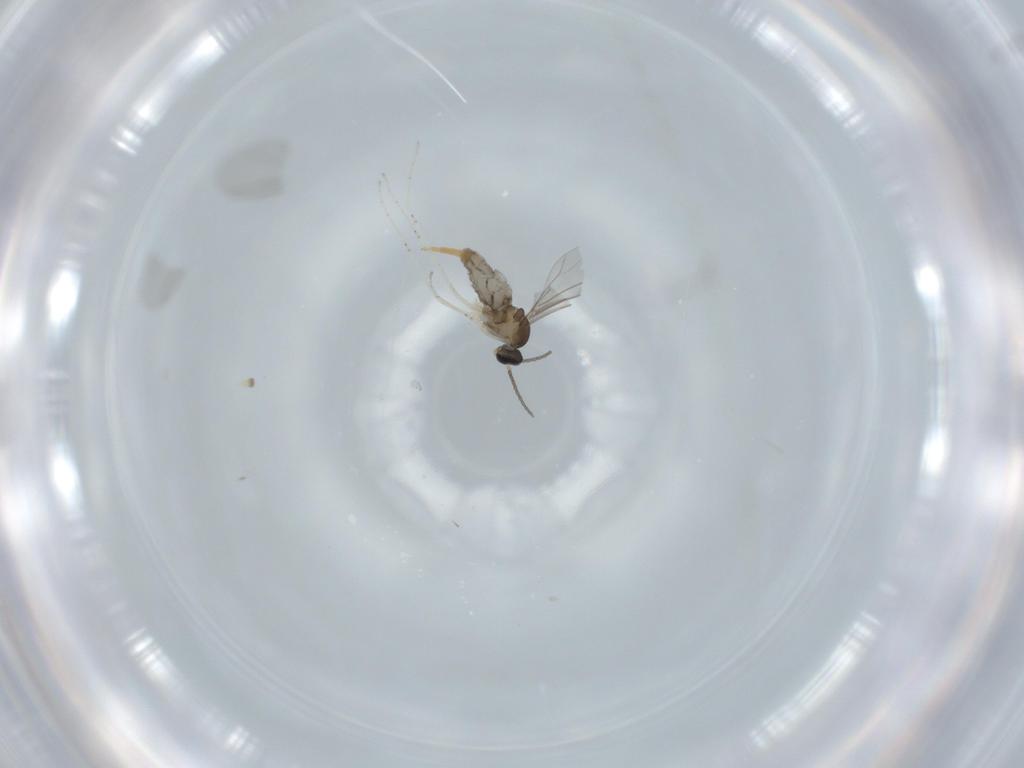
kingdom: Animalia
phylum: Arthropoda
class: Insecta
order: Diptera
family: Cecidomyiidae
